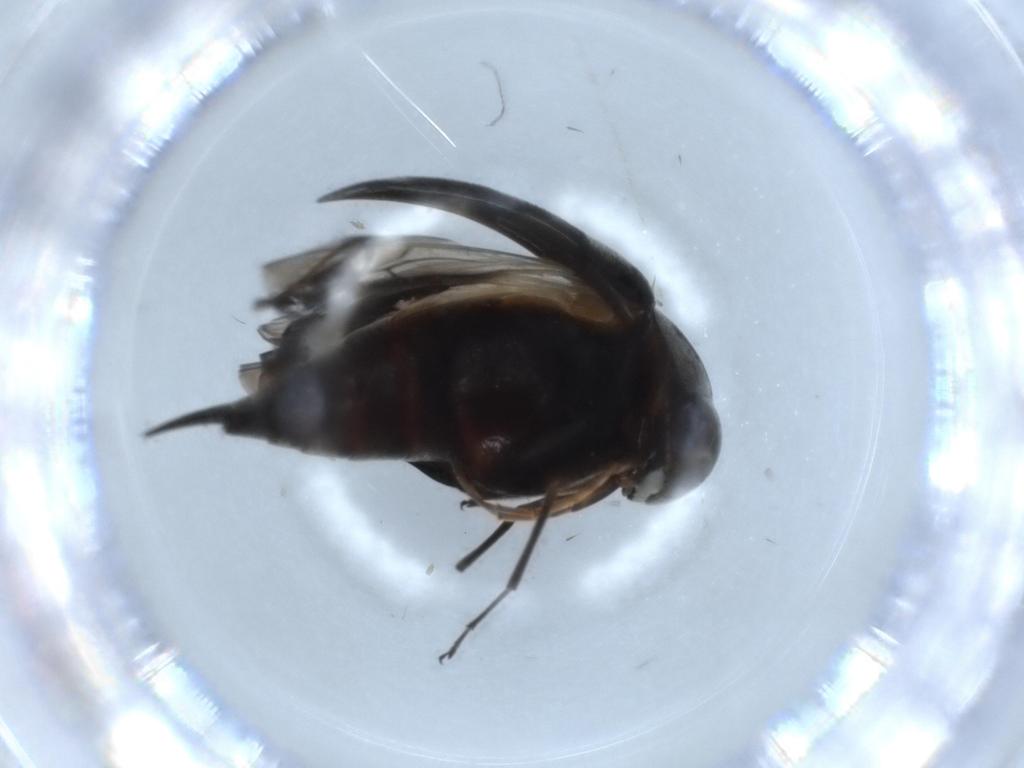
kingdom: Animalia
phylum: Arthropoda
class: Insecta
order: Coleoptera
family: Mordellidae
